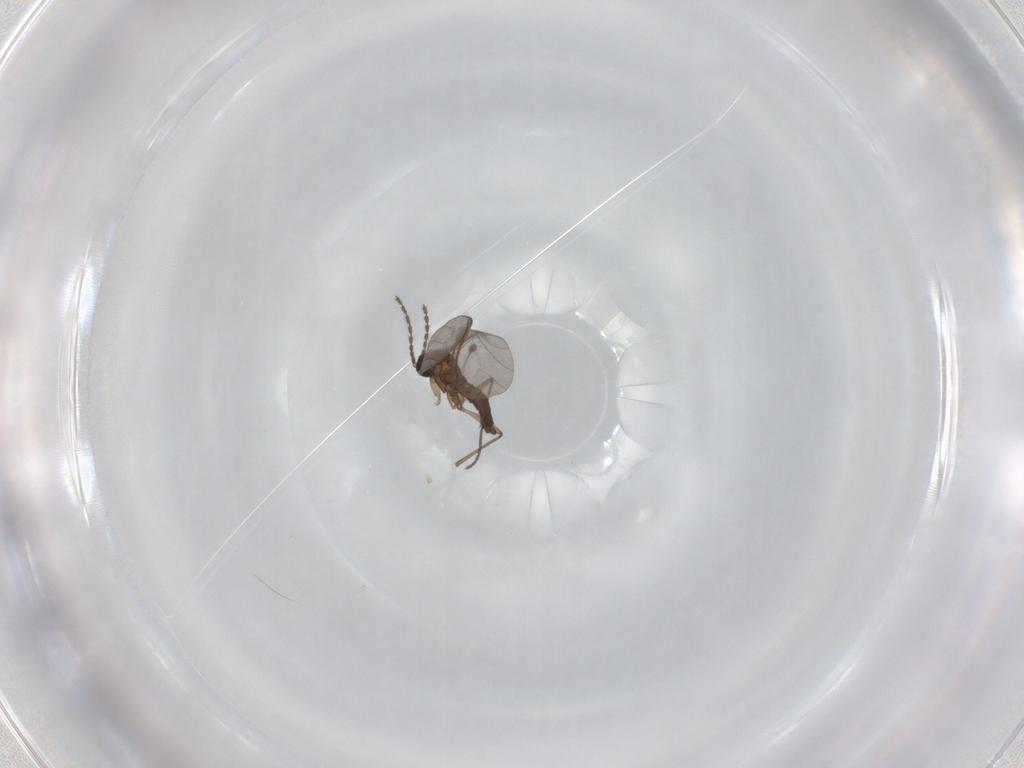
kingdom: Animalia
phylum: Arthropoda
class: Insecta
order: Diptera
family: Sciaridae
